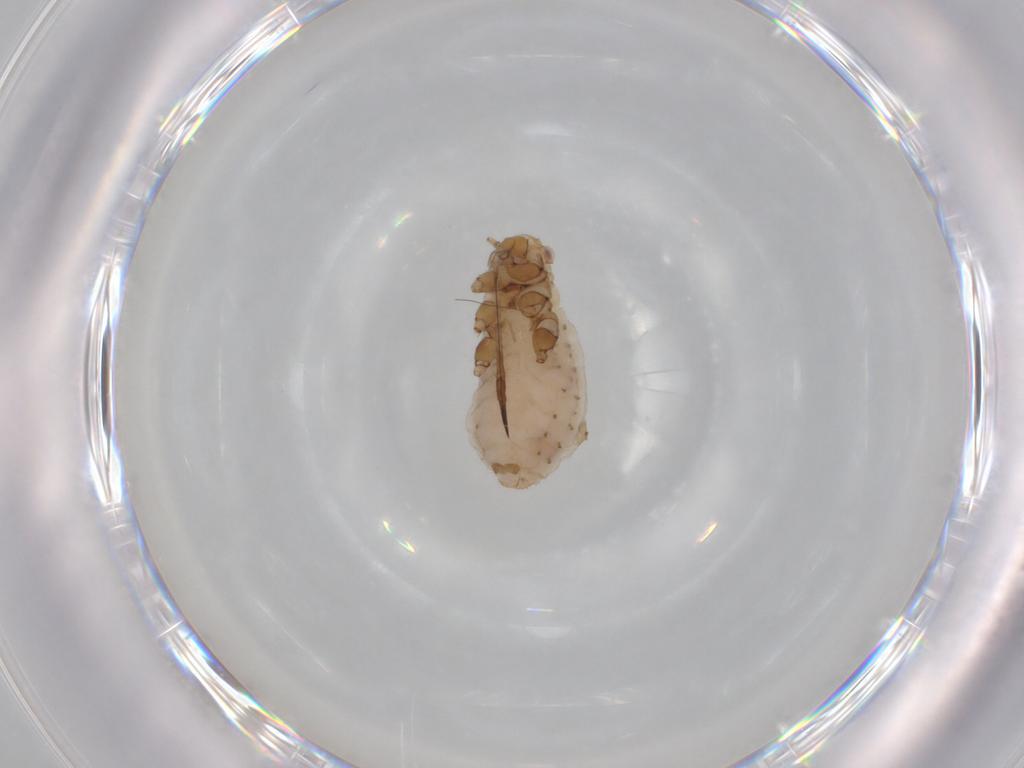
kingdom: Animalia
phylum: Arthropoda
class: Insecta
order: Hemiptera
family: Aphididae
